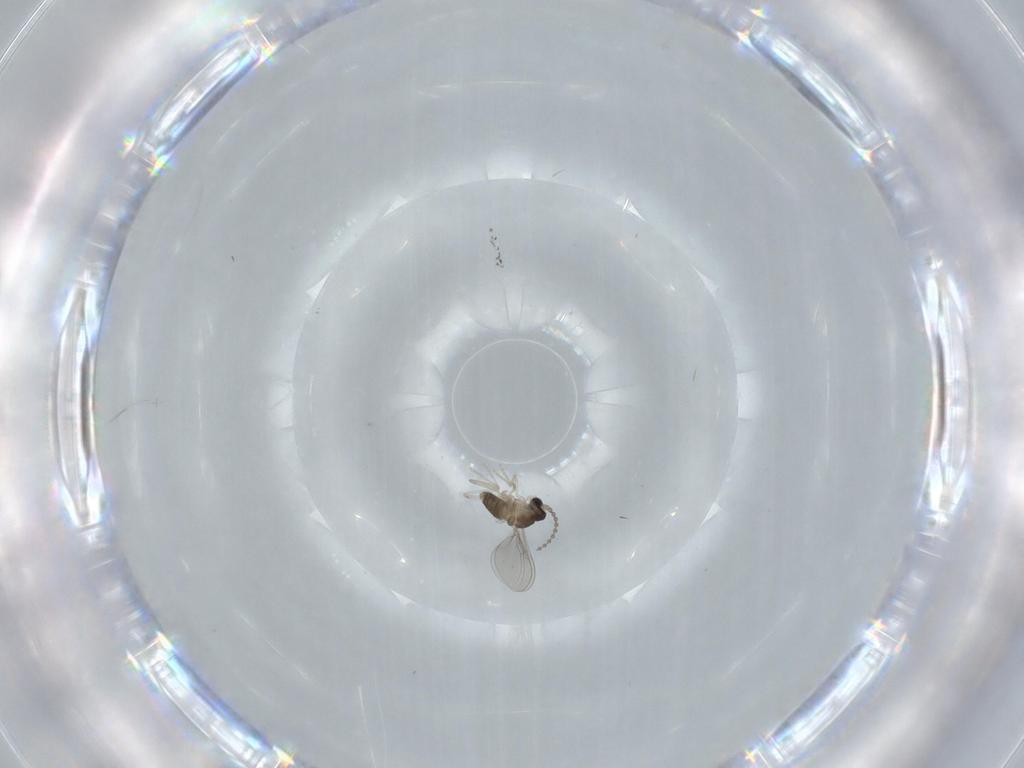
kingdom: Animalia
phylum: Arthropoda
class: Insecta
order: Diptera
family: Cecidomyiidae
